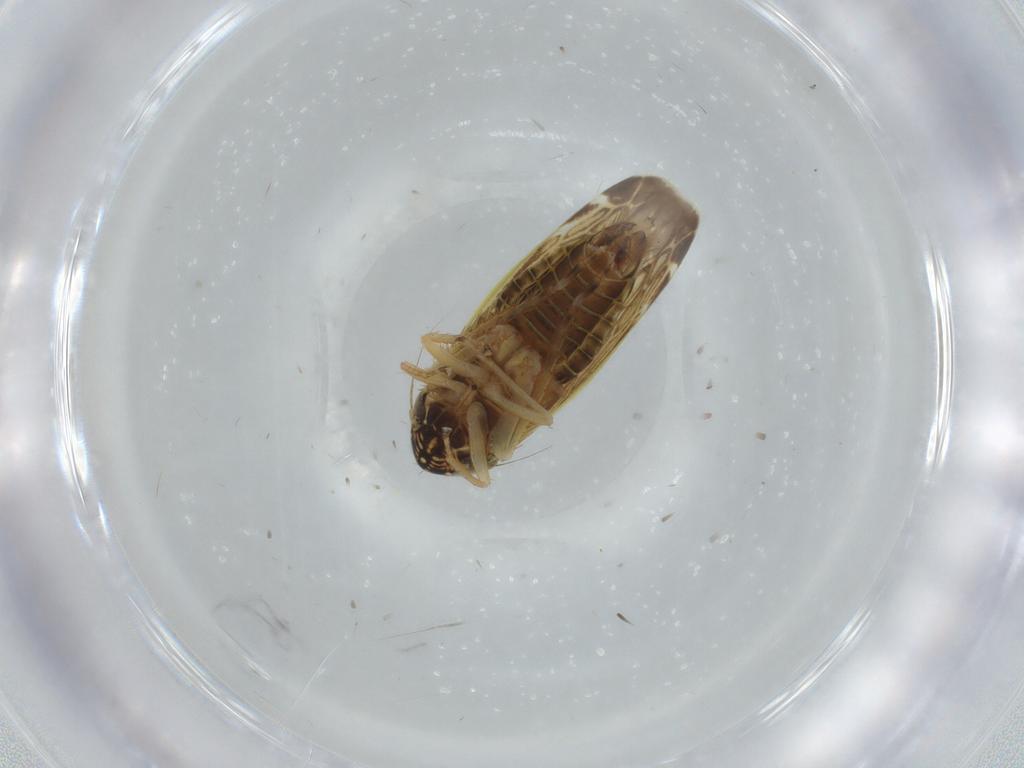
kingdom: Animalia
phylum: Arthropoda
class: Insecta
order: Hemiptera
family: Cicadellidae
